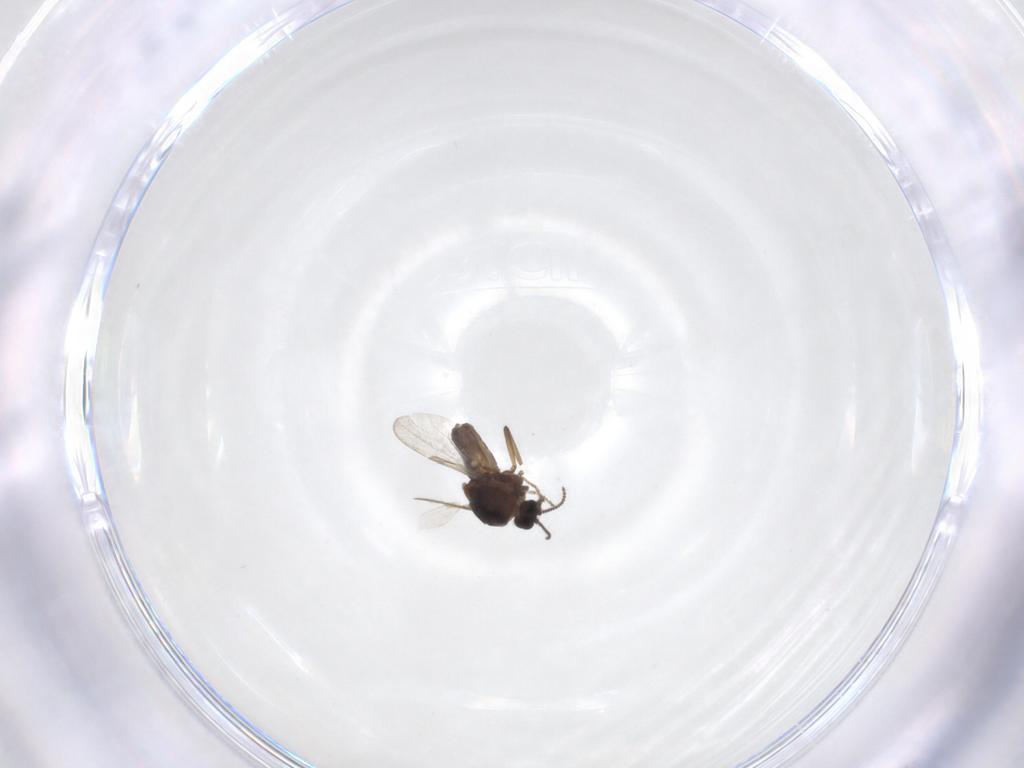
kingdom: Animalia
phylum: Arthropoda
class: Insecta
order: Diptera
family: Ceratopogonidae
